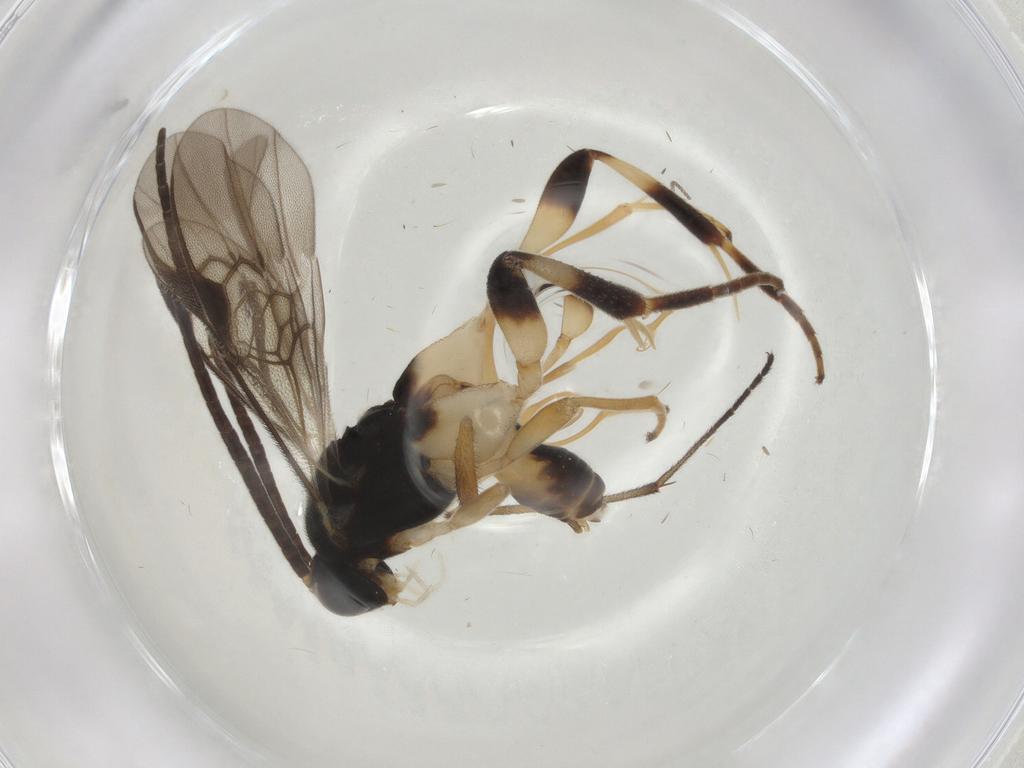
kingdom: Animalia
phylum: Arthropoda
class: Insecta
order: Hymenoptera
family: Braconidae
